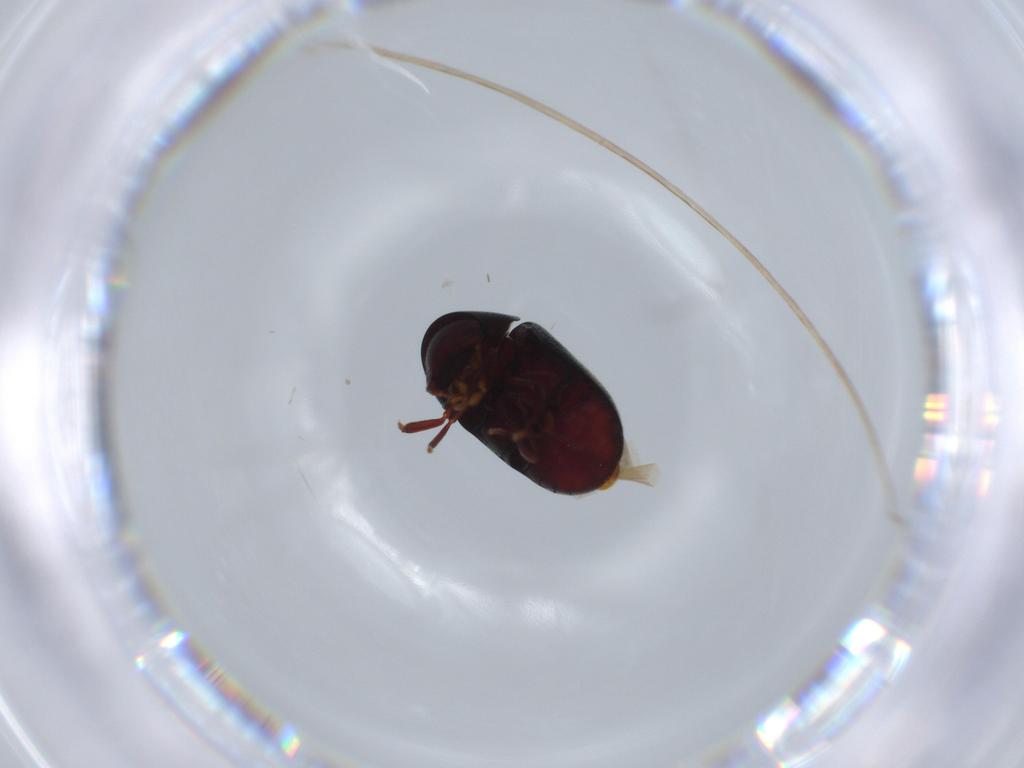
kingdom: Animalia
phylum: Arthropoda
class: Insecta
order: Coleoptera
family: Ptinidae
